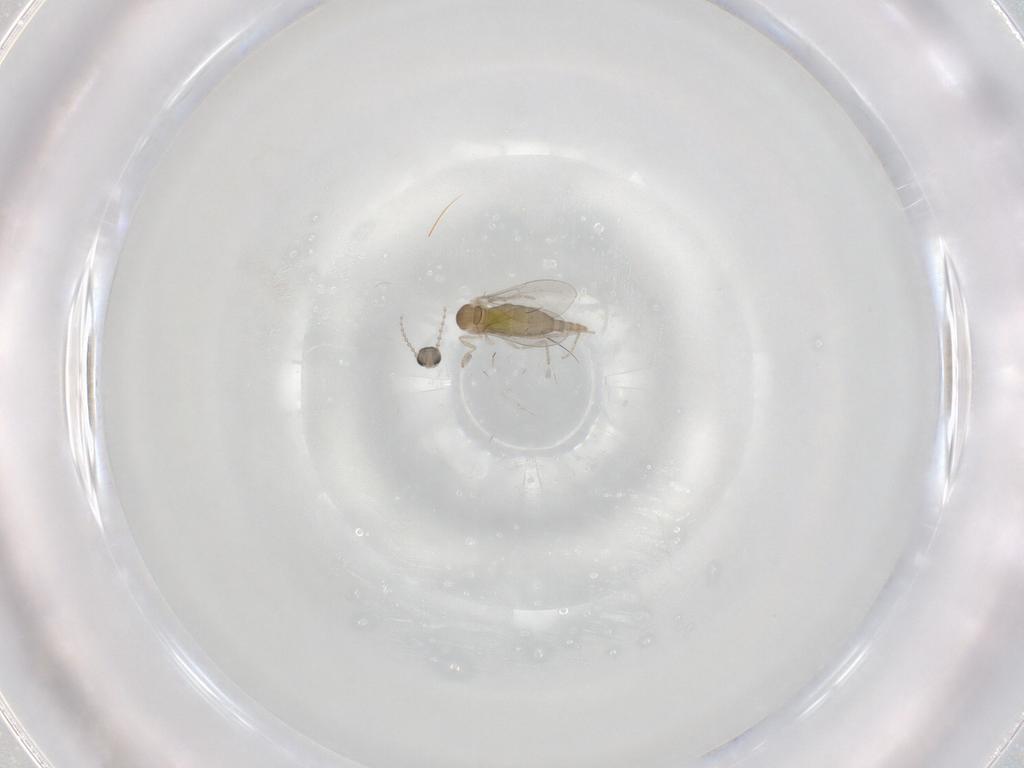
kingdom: Animalia
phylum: Arthropoda
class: Insecta
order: Diptera
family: Cecidomyiidae
